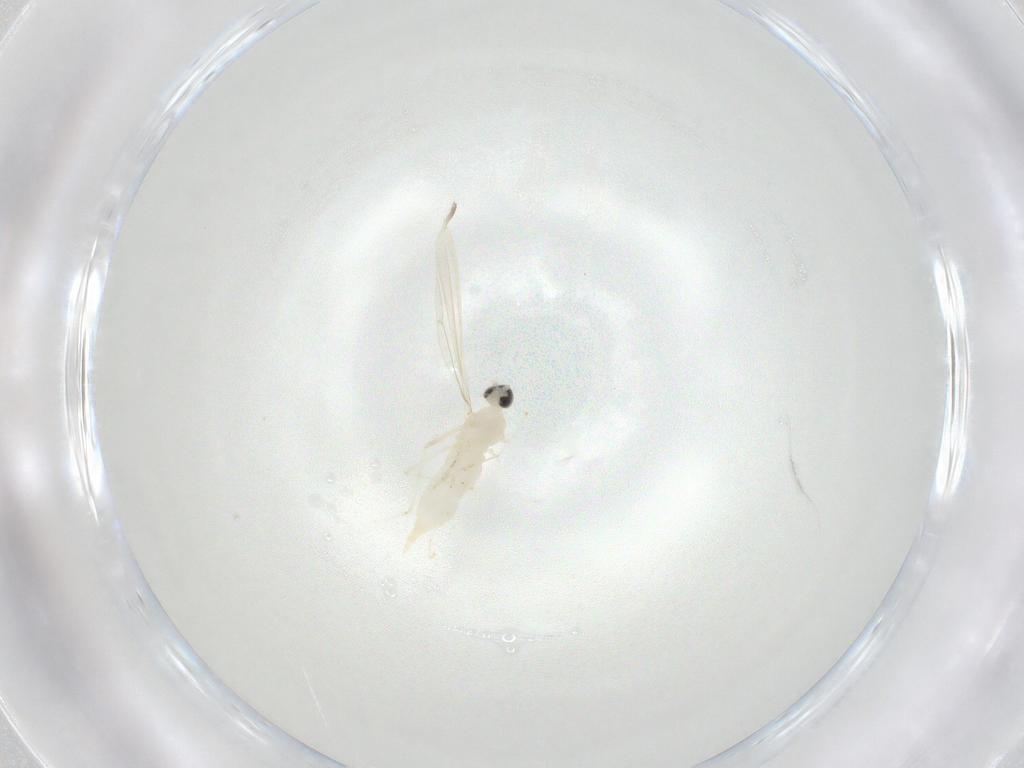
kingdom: Animalia
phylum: Arthropoda
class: Insecta
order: Diptera
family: Cecidomyiidae
